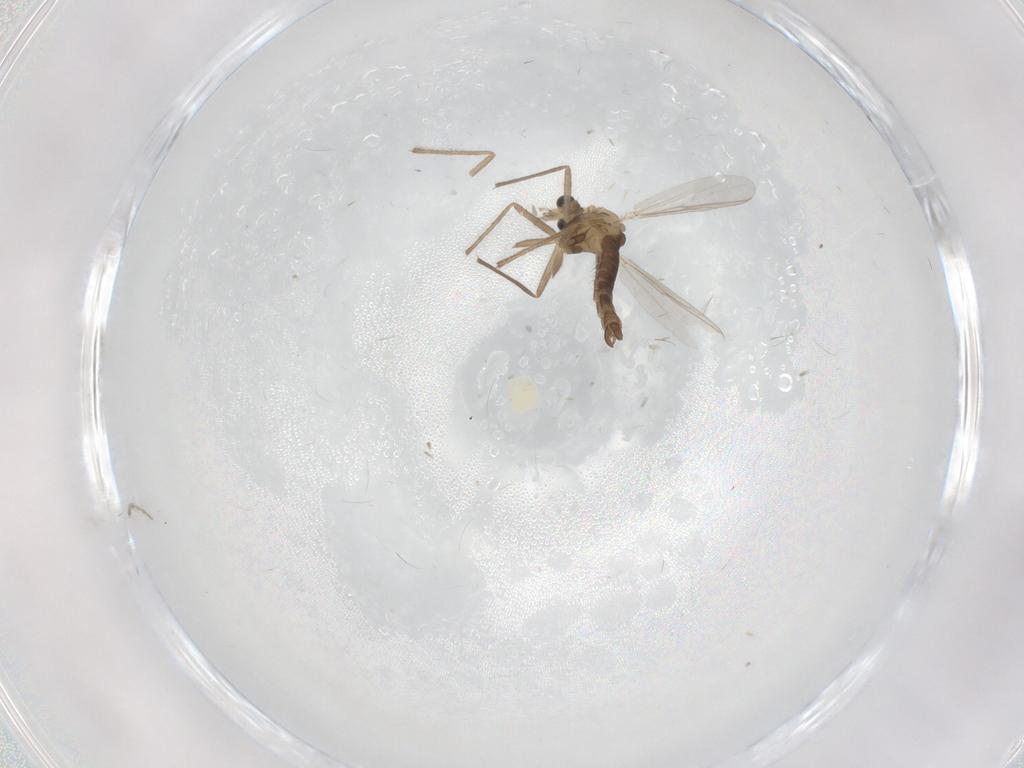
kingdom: Animalia
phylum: Arthropoda
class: Insecta
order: Diptera
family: Chironomidae
